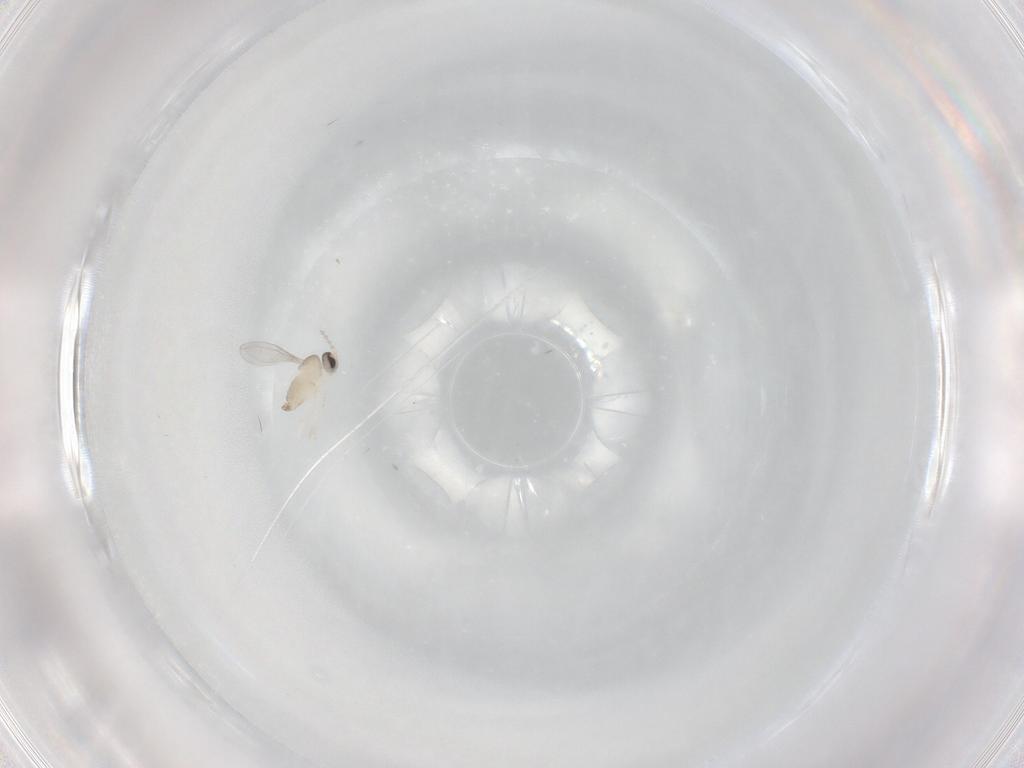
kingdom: Animalia
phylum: Arthropoda
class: Insecta
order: Diptera
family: Cecidomyiidae
